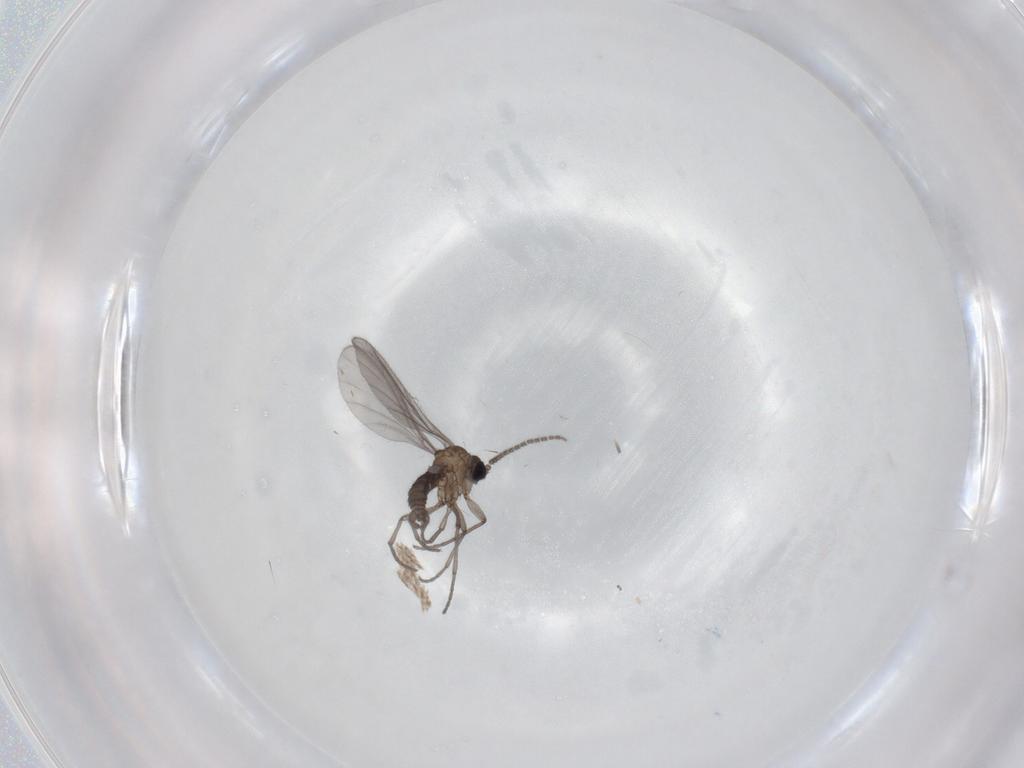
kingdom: Animalia
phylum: Arthropoda
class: Insecta
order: Diptera
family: Sciaridae
